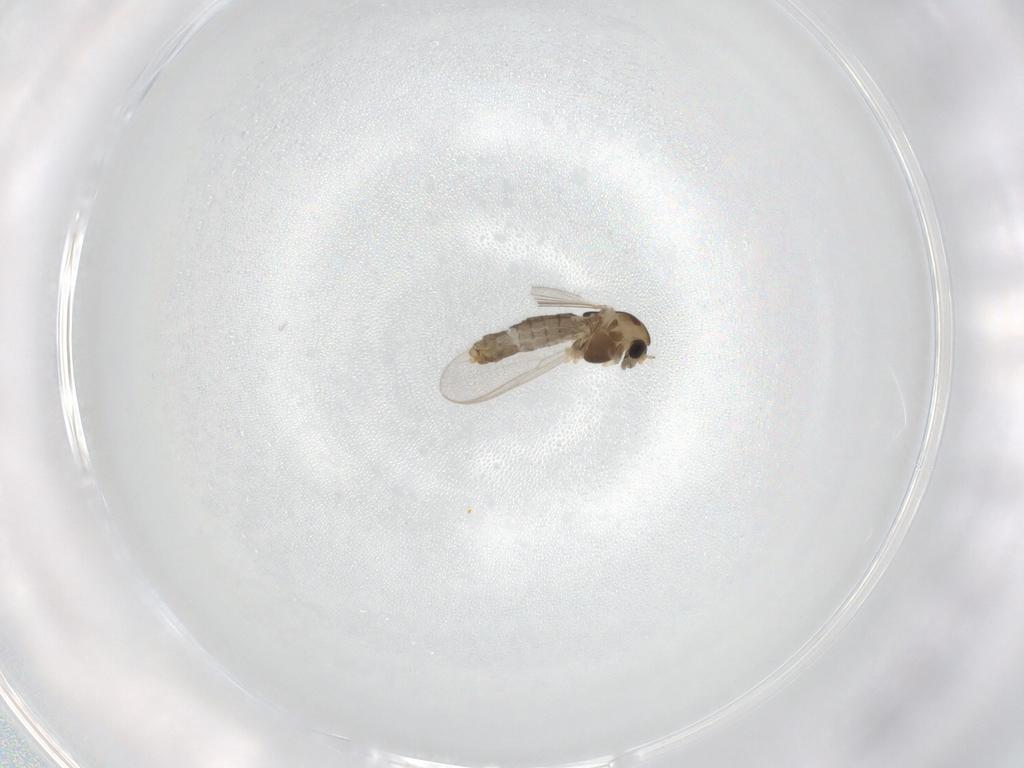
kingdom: Animalia
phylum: Arthropoda
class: Insecta
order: Diptera
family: Chironomidae
